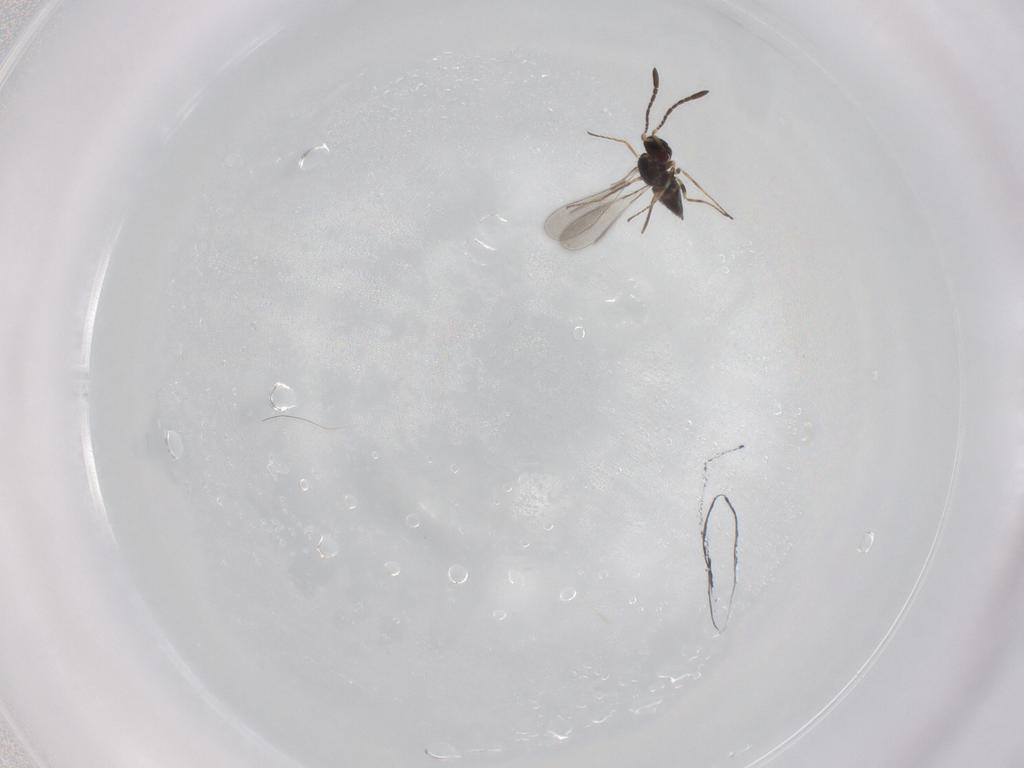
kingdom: Animalia
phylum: Arthropoda
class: Insecta
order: Hymenoptera
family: Mymaridae
